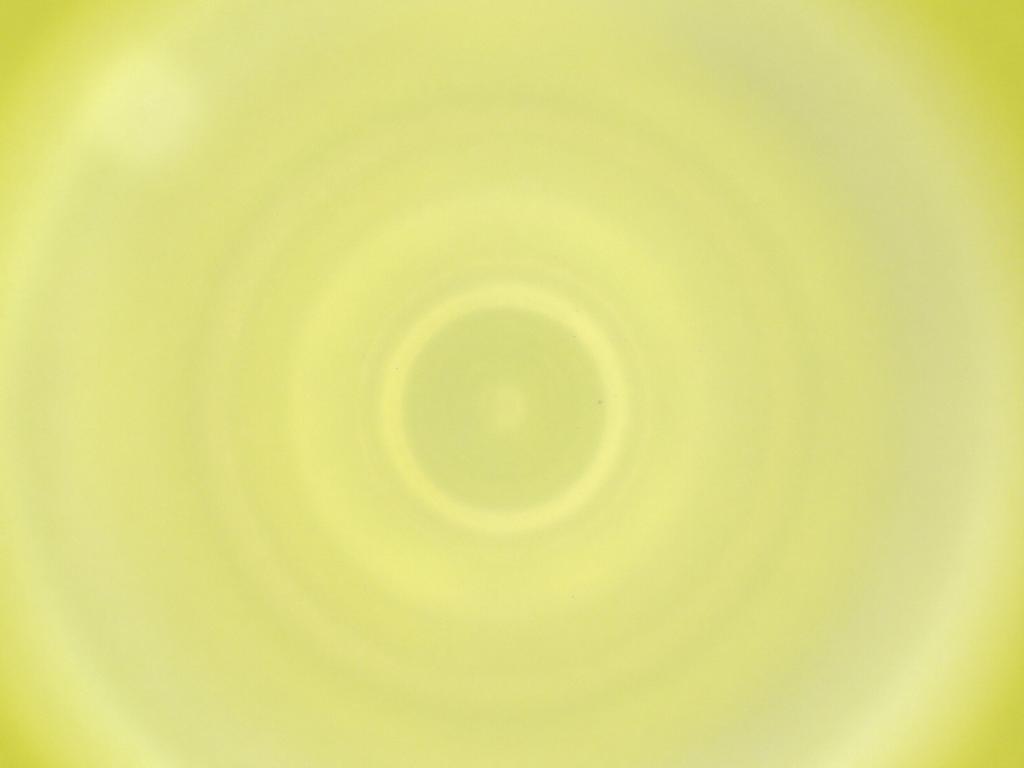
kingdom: Animalia
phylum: Arthropoda
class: Insecta
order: Diptera
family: Cecidomyiidae
